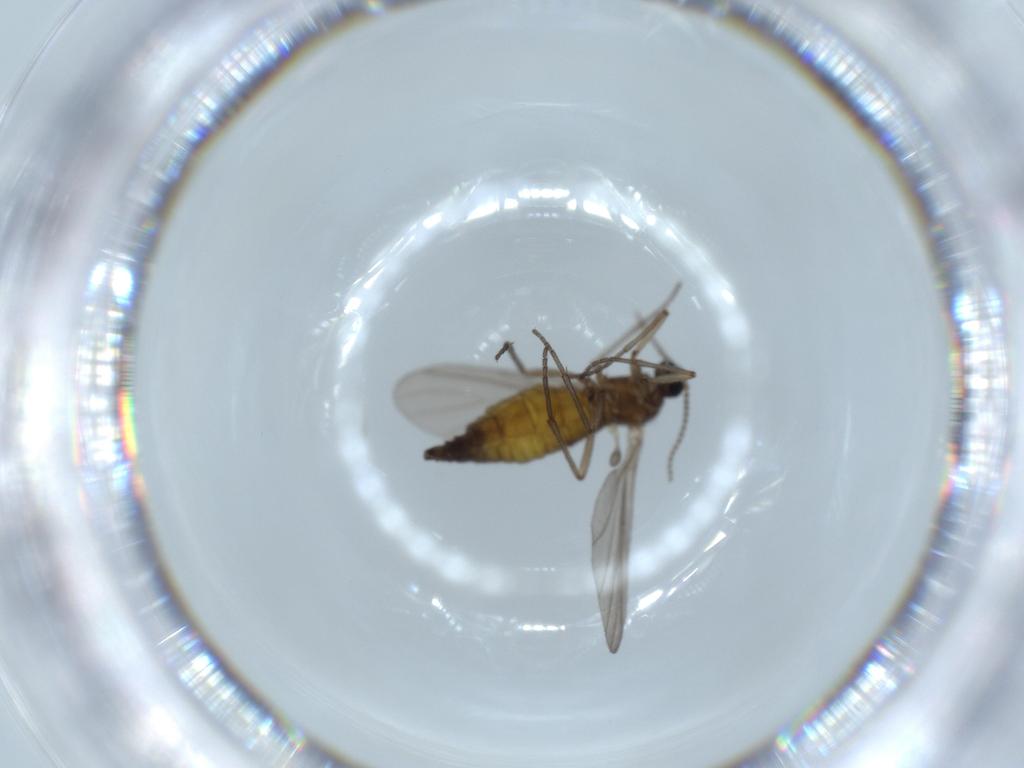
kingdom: Animalia
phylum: Arthropoda
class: Insecta
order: Diptera
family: Sciaridae
